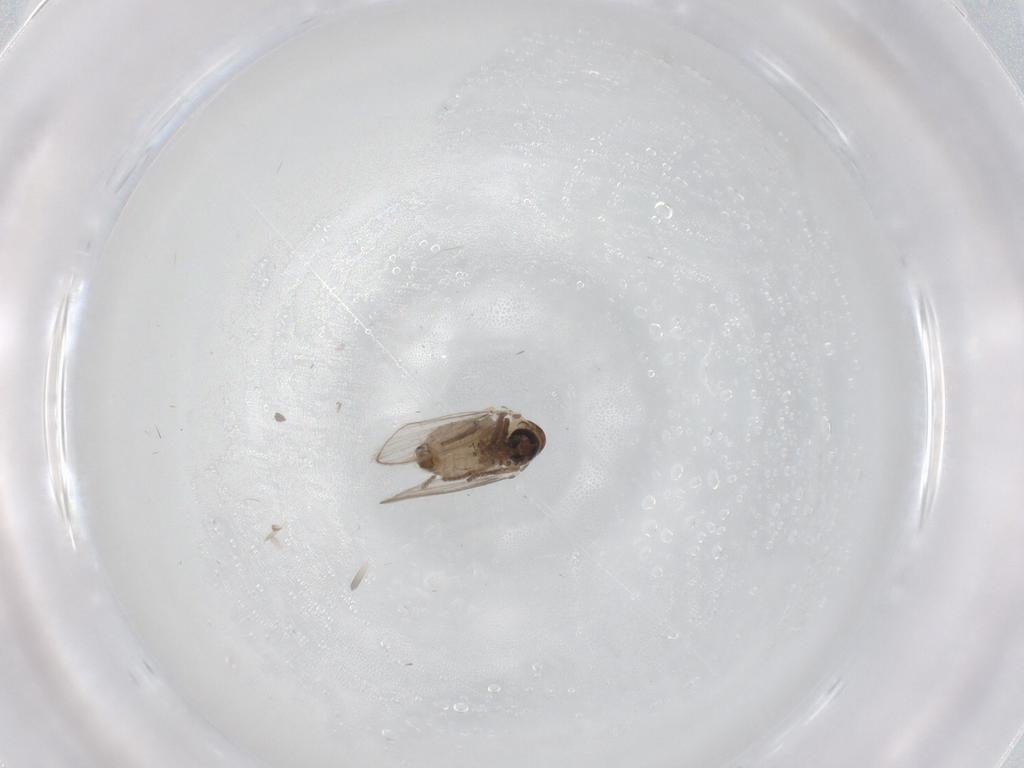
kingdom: Animalia
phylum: Arthropoda
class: Insecta
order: Diptera
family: Psychodidae
